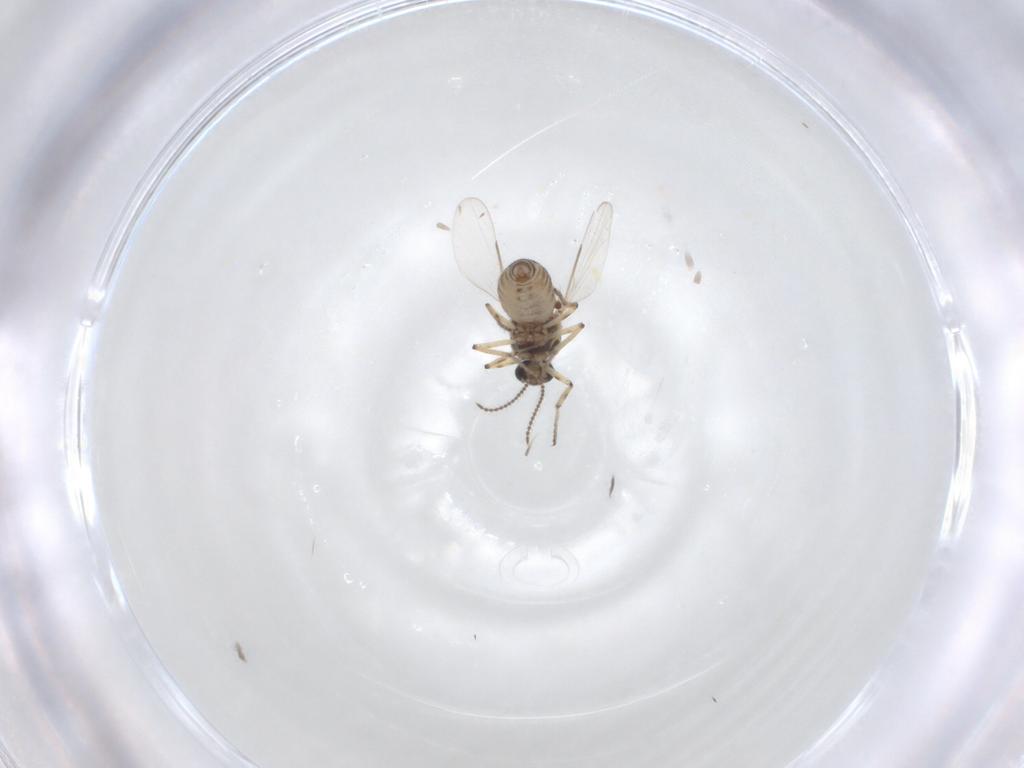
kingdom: Animalia
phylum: Arthropoda
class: Insecta
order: Diptera
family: Ceratopogonidae
